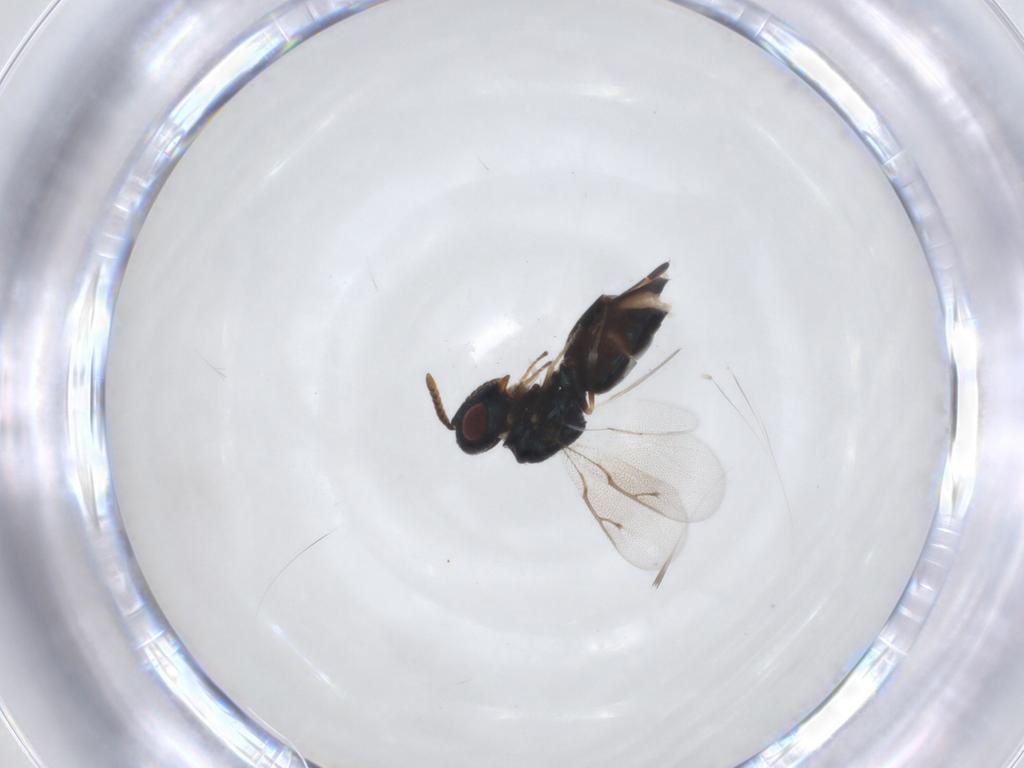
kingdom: Animalia
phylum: Arthropoda
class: Insecta
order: Hymenoptera
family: Pteromalidae
